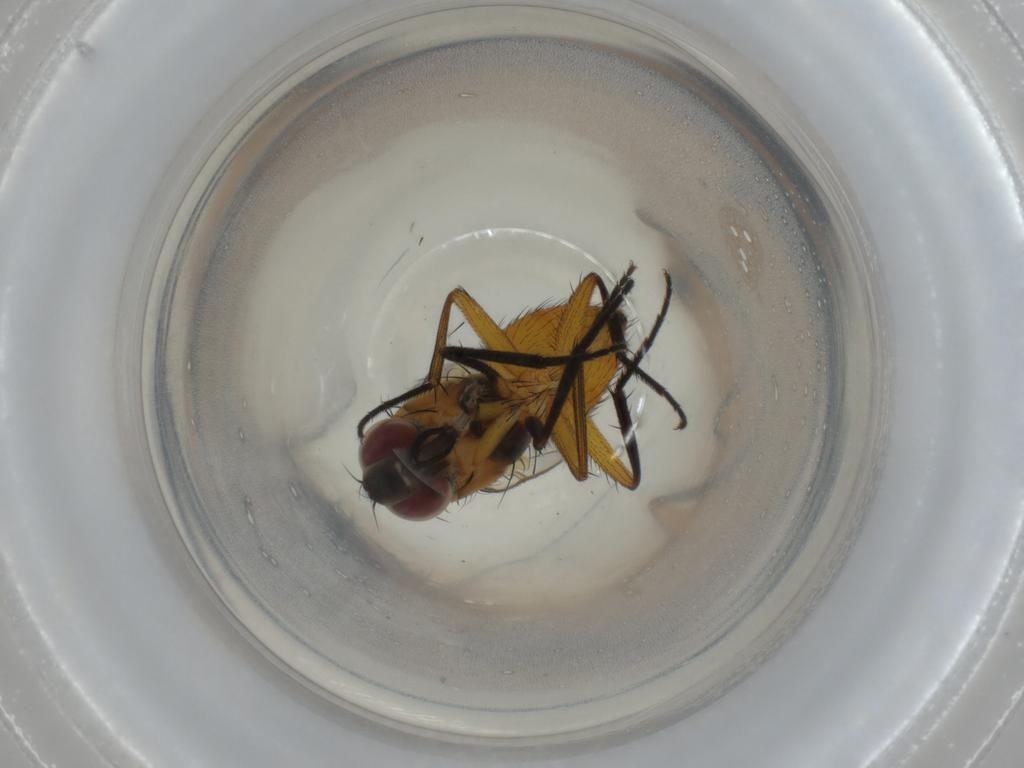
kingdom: Animalia
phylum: Arthropoda
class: Insecta
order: Diptera
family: Muscidae
